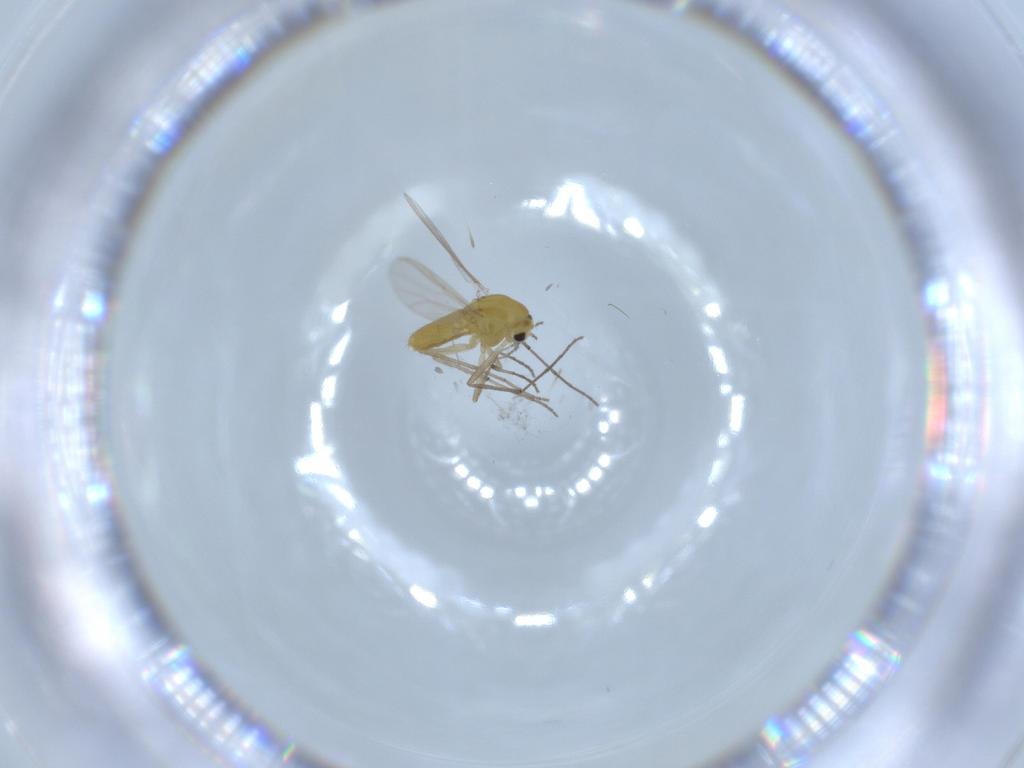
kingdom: Animalia
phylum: Arthropoda
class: Insecta
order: Diptera
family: Chironomidae
